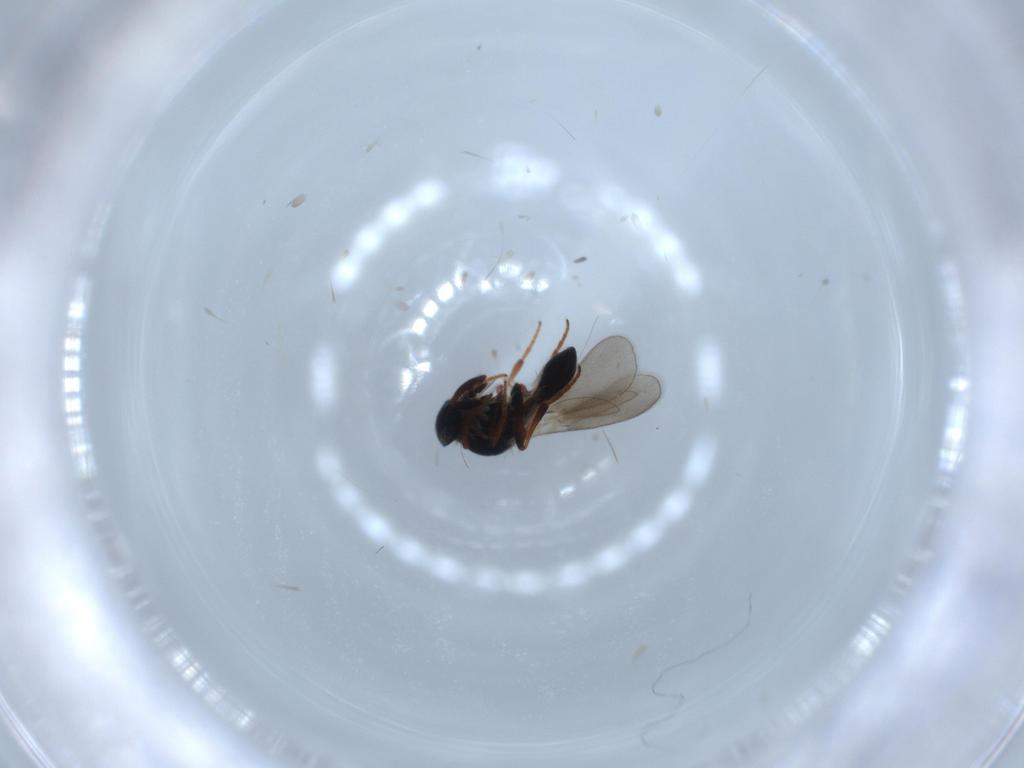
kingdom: Animalia
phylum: Arthropoda
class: Insecta
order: Hymenoptera
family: Platygastridae
